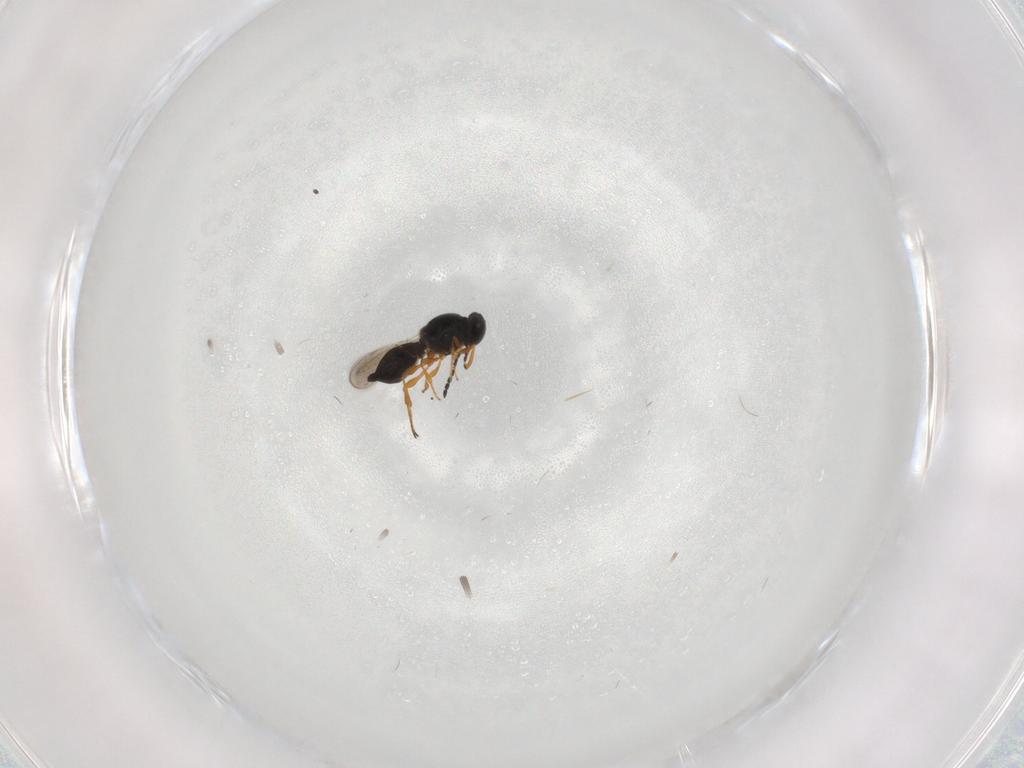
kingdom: Animalia
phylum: Arthropoda
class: Insecta
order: Hymenoptera
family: Platygastridae
